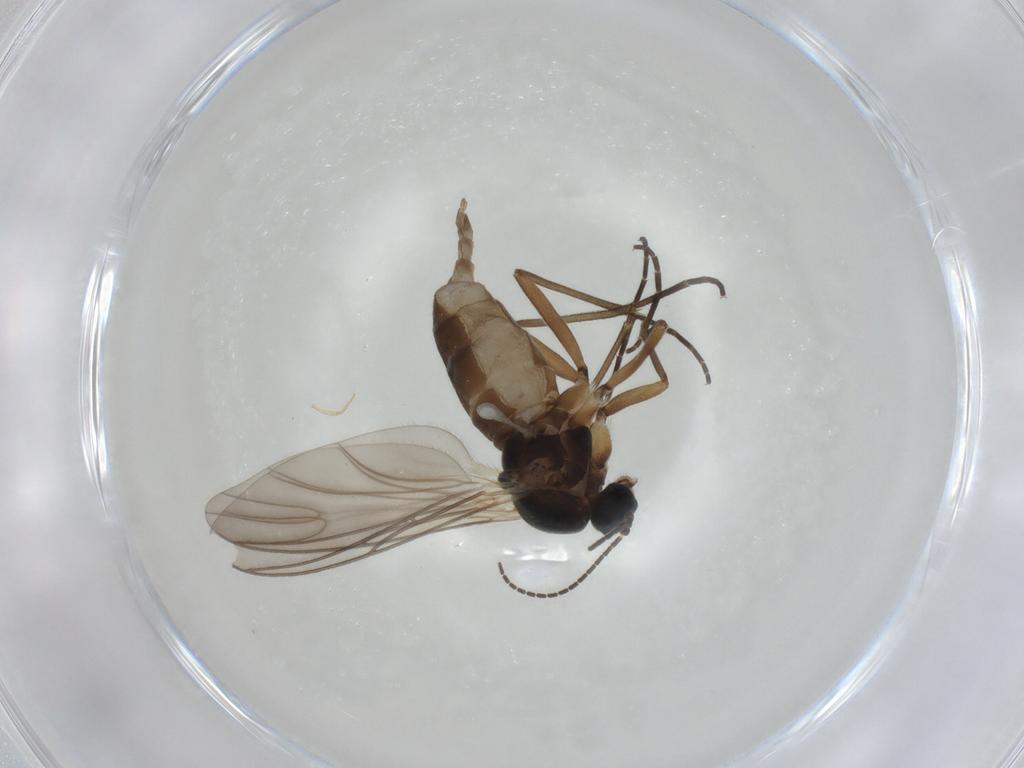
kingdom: Animalia
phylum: Arthropoda
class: Insecta
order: Diptera
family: Sciaridae
